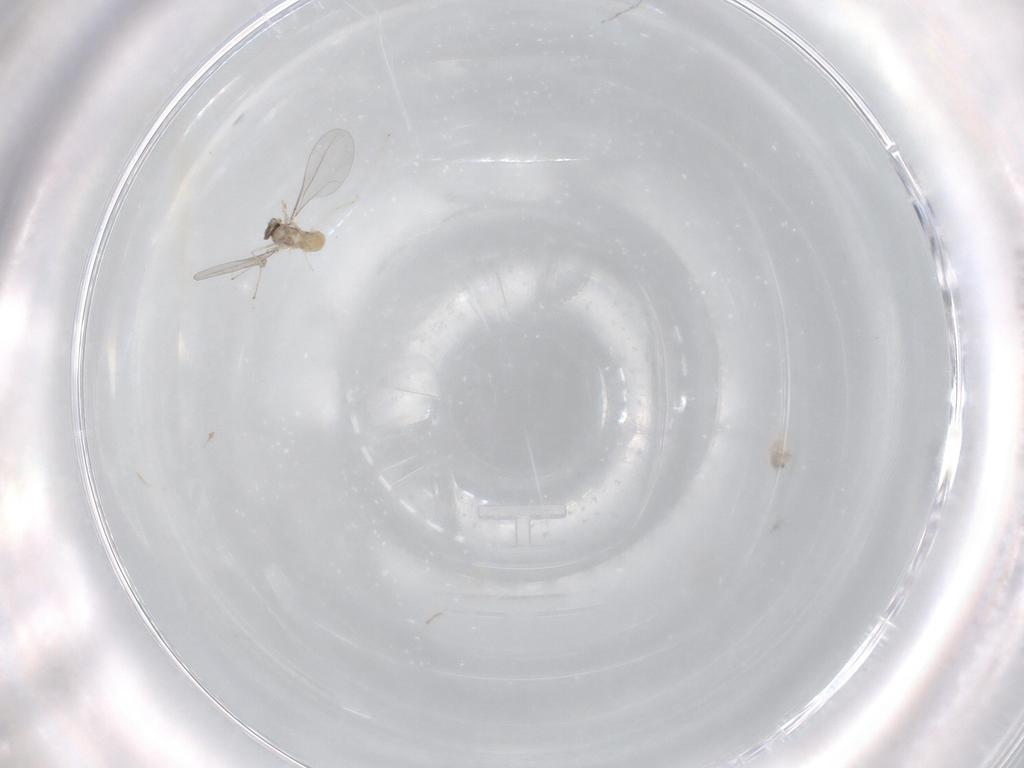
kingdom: Animalia
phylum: Arthropoda
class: Insecta
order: Diptera
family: Cecidomyiidae
